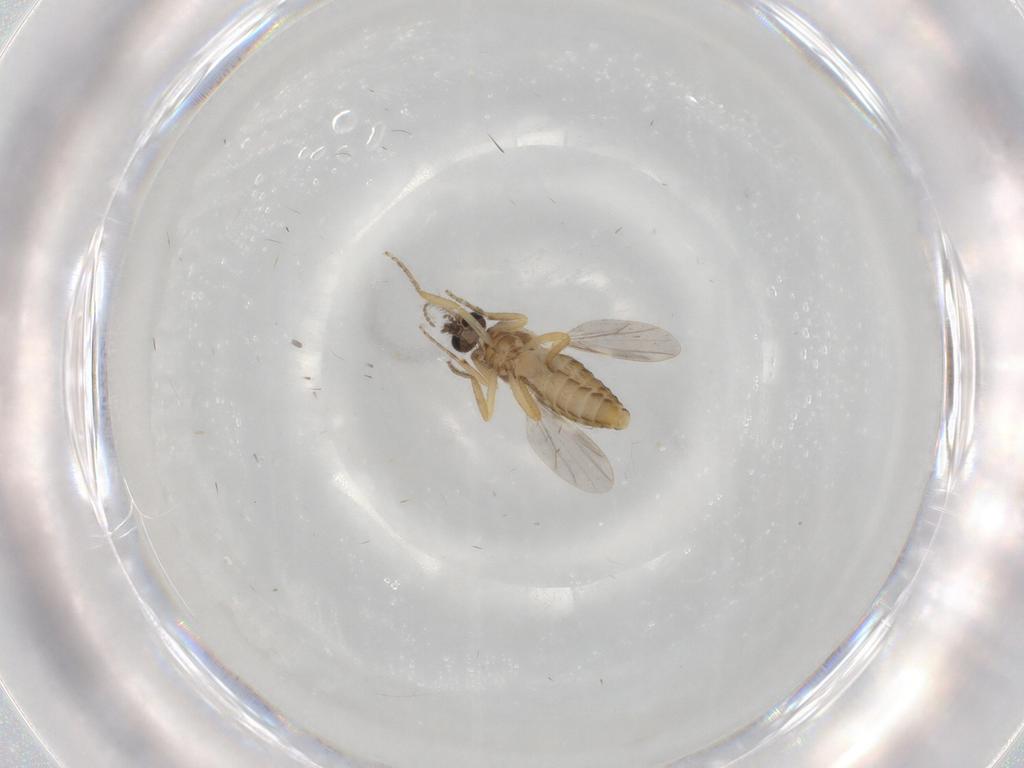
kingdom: Animalia
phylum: Arthropoda
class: Insecta
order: Diptera
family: Ceratopogonidae
